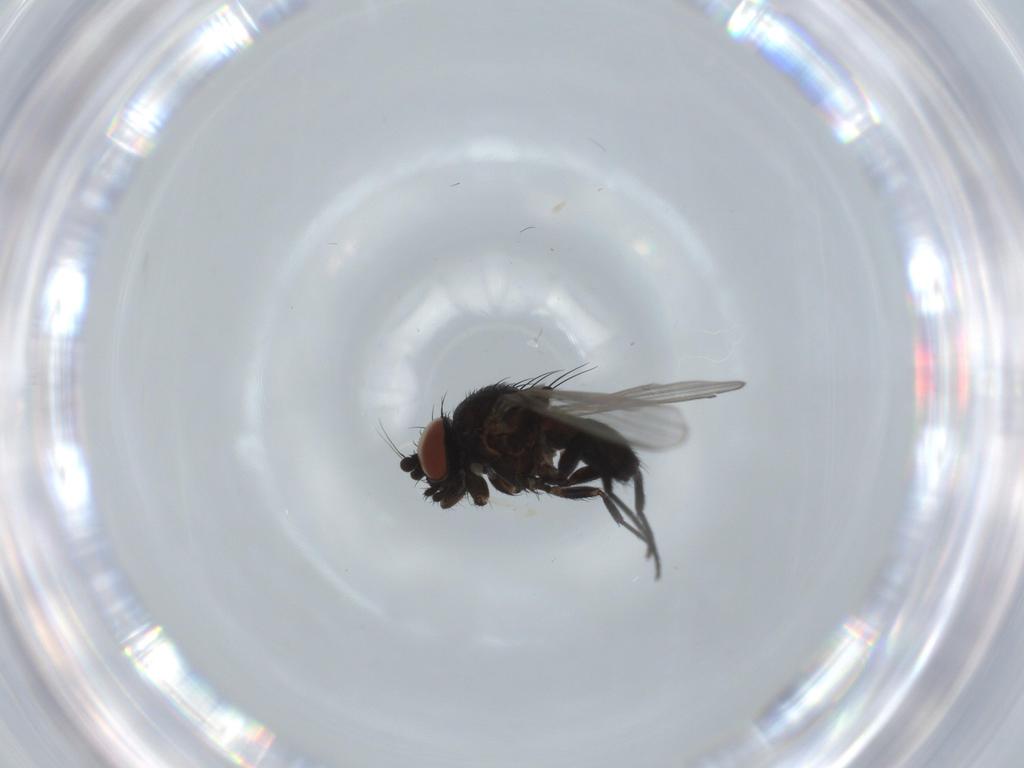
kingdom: Animalia
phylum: Arthropoda
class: Insecta
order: Diptera
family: Milichiidae
